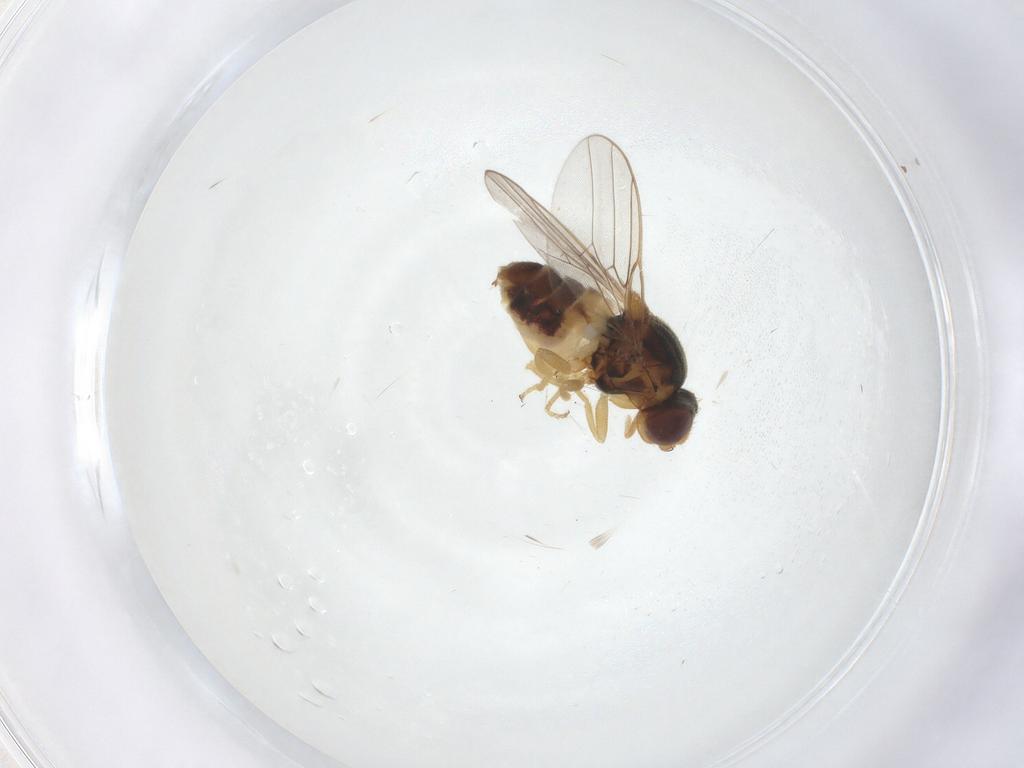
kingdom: Animalia
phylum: Arthropoda
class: Insecta
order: Diptera
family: Chloropidae
